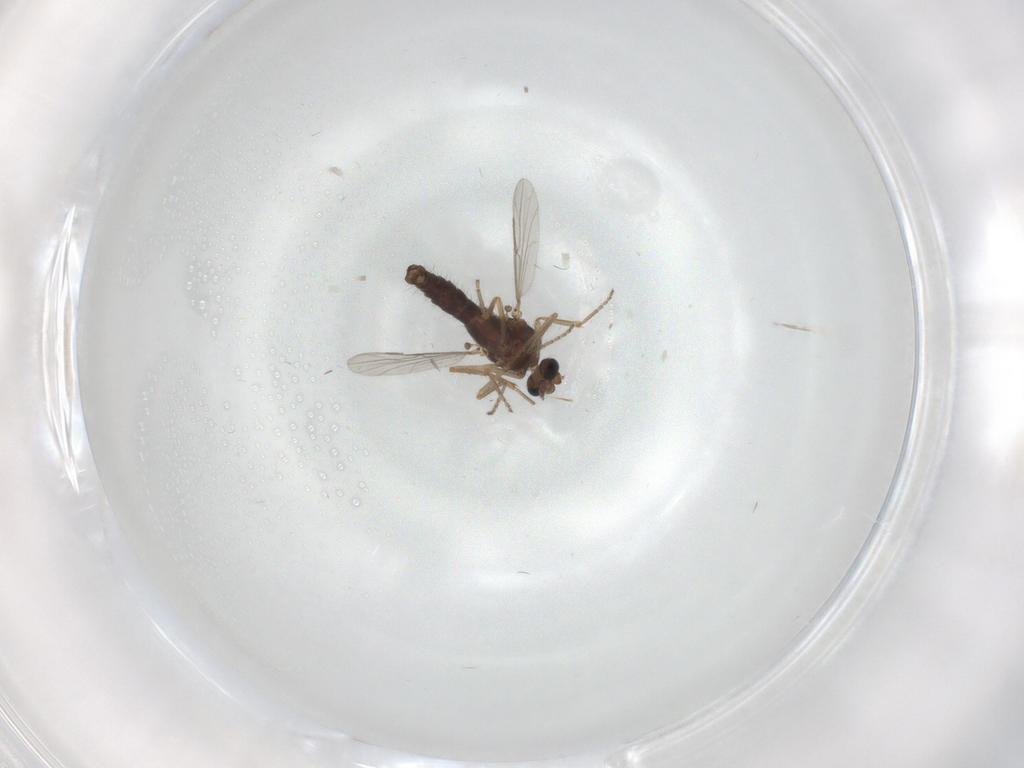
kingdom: Animalia
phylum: Arthropoda
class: Insecta
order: Diptera
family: Ceratopogonidae
